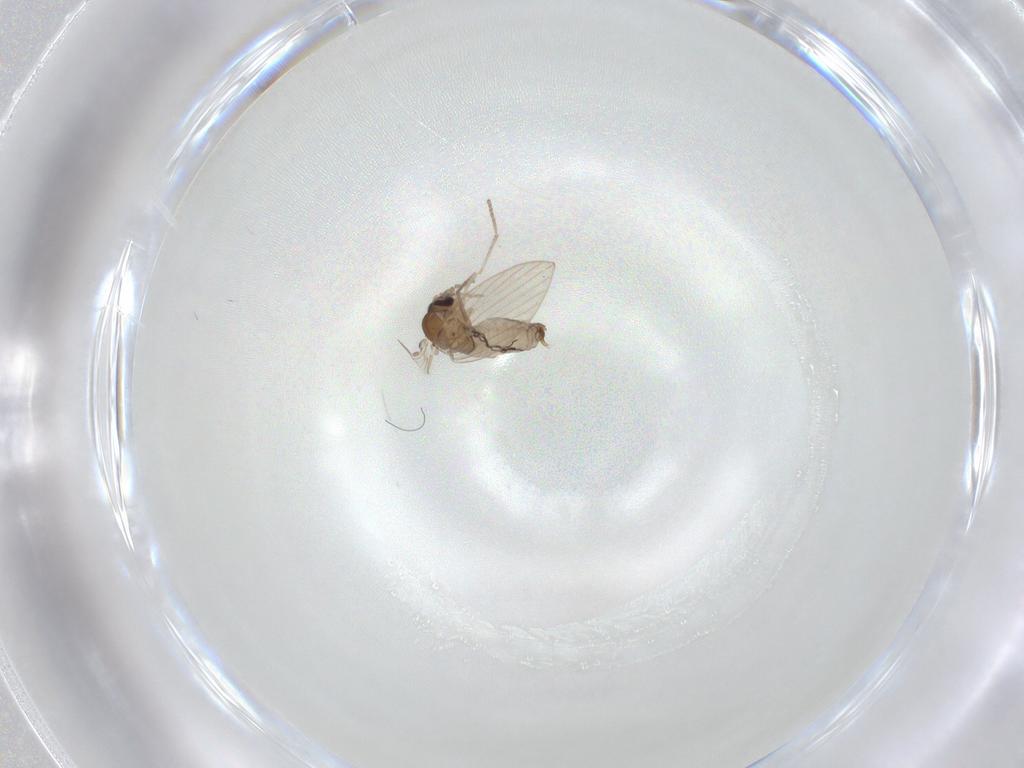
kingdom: Animalia
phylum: Arthropoda
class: Insecta
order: Diptera
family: Psychodidae
